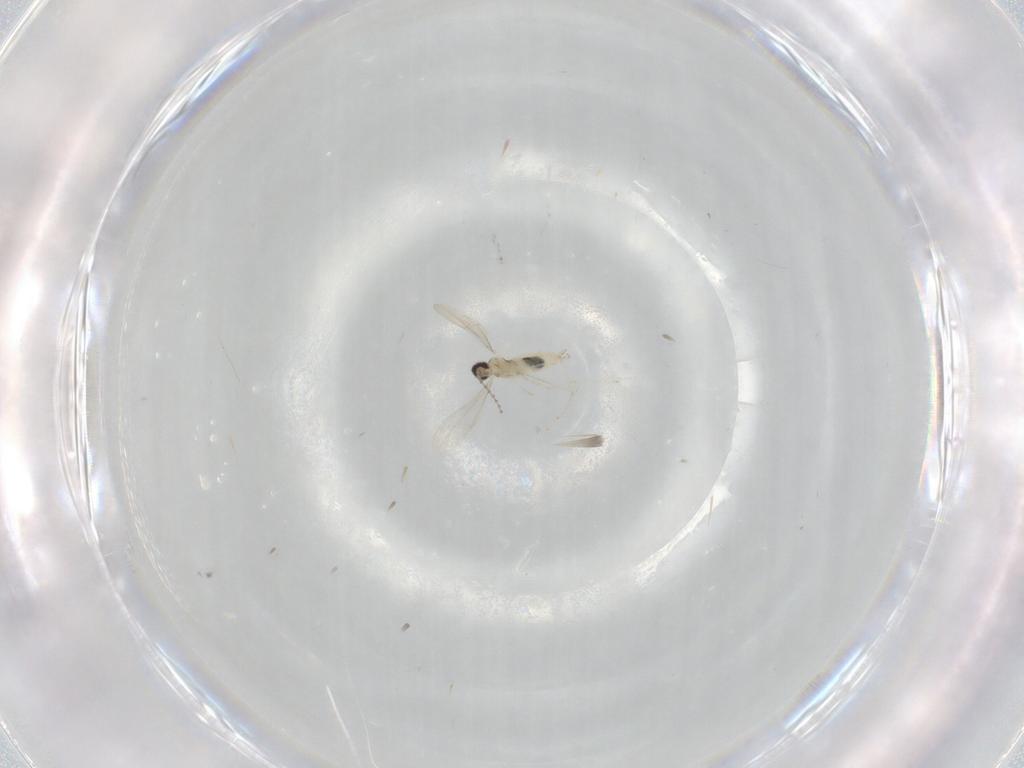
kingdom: Animalia
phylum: Arthropoda
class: Insecta
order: Diptera
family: Cecidomyiidae
